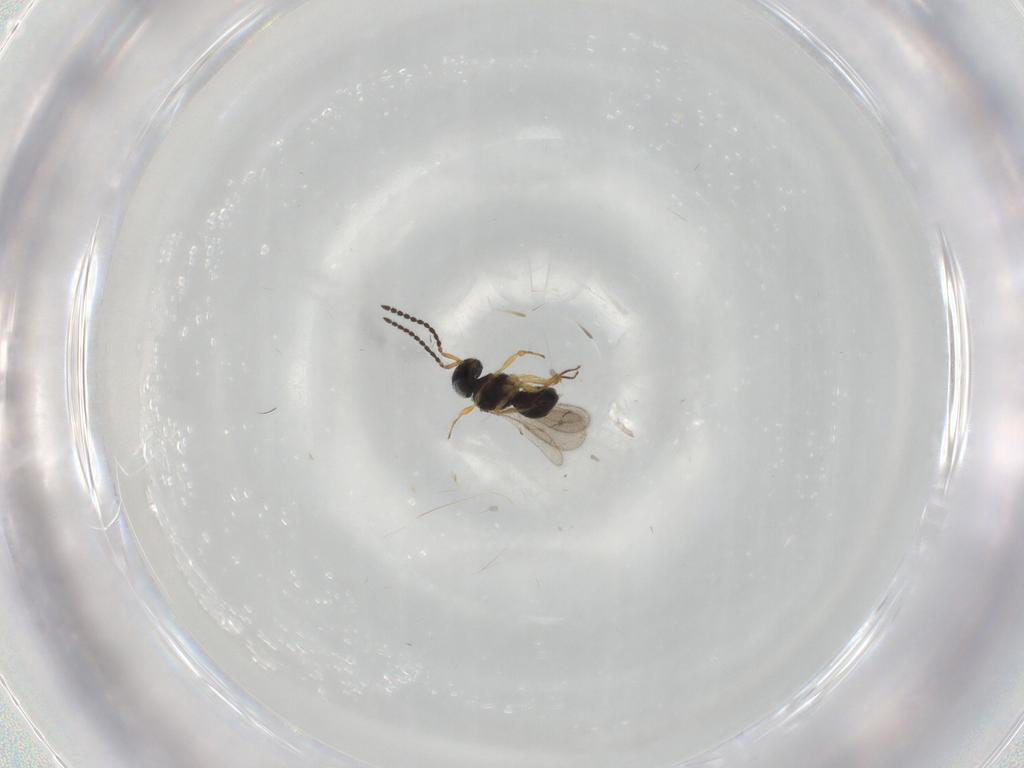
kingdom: Animalia
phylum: Arthropoda
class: Insecta
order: Hymenoptera
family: Scelionidae
